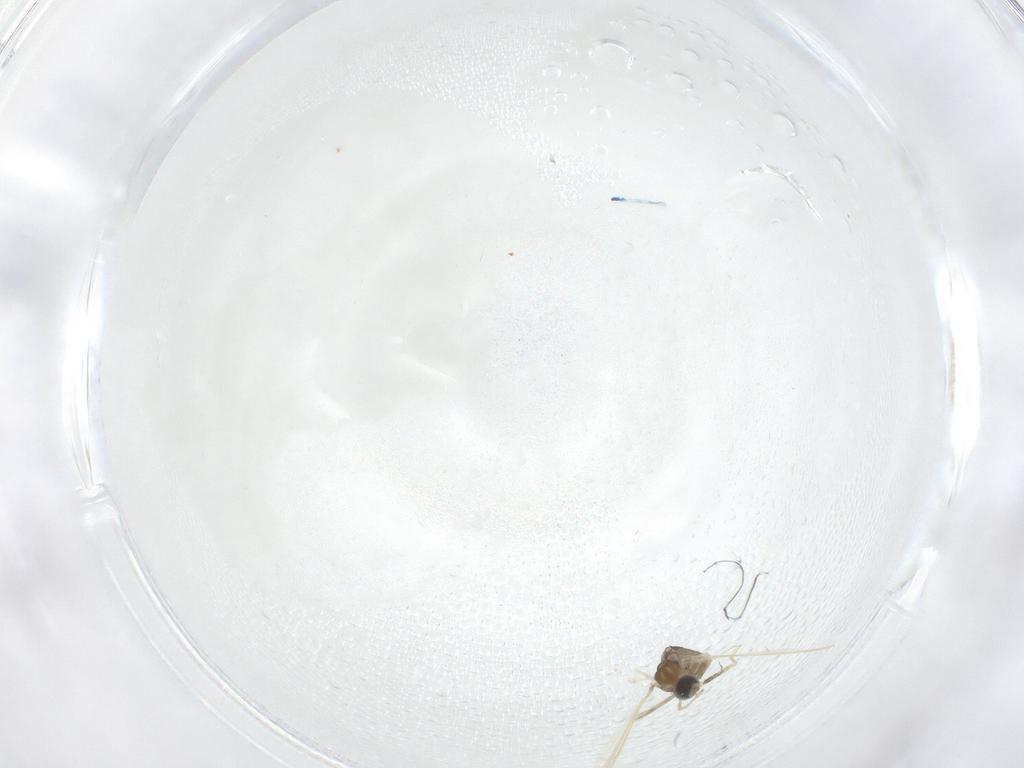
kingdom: Animalia
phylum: Arthropoda
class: Insecta
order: Diptera
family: Cecidomyiidae
